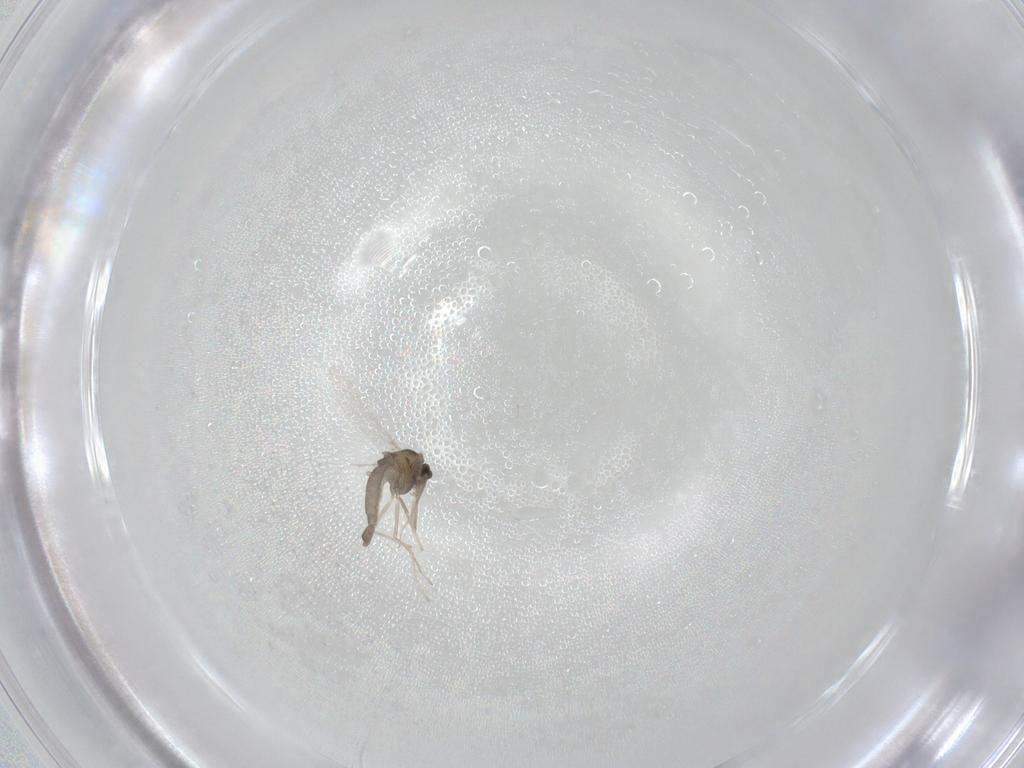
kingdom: Animalia
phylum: Arthropoda
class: Insecta
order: Diptera
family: Chironomidae
